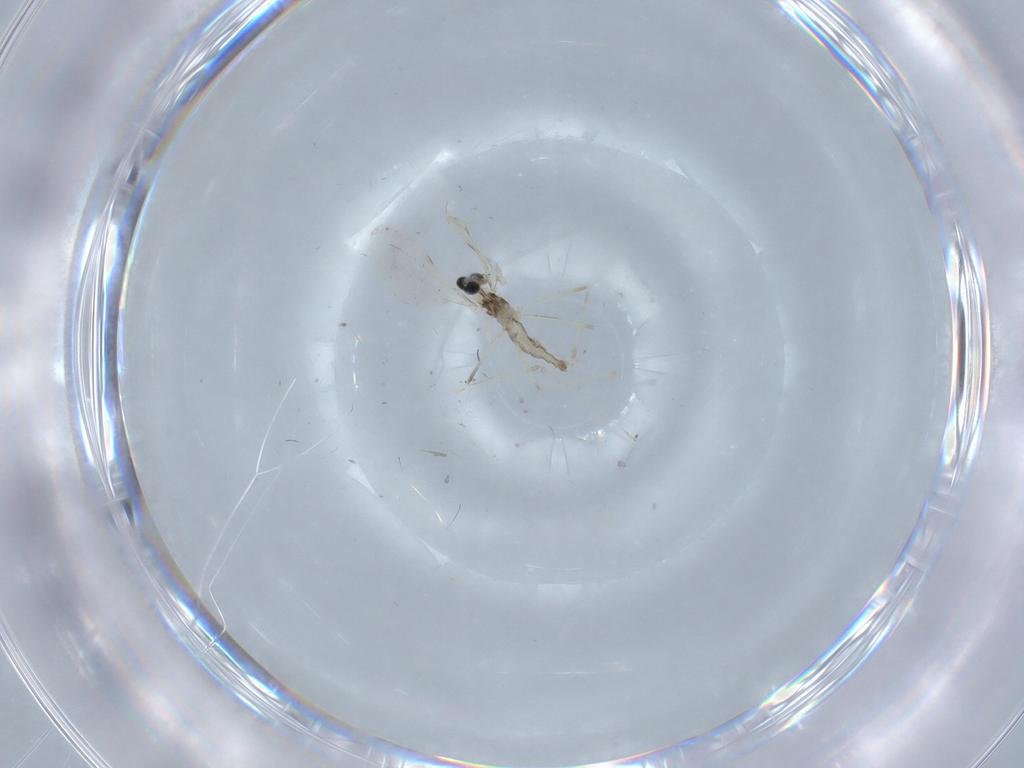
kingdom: Animalia
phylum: Arthropoda
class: Insecta
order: Diptera
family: Cecidomyiidae
